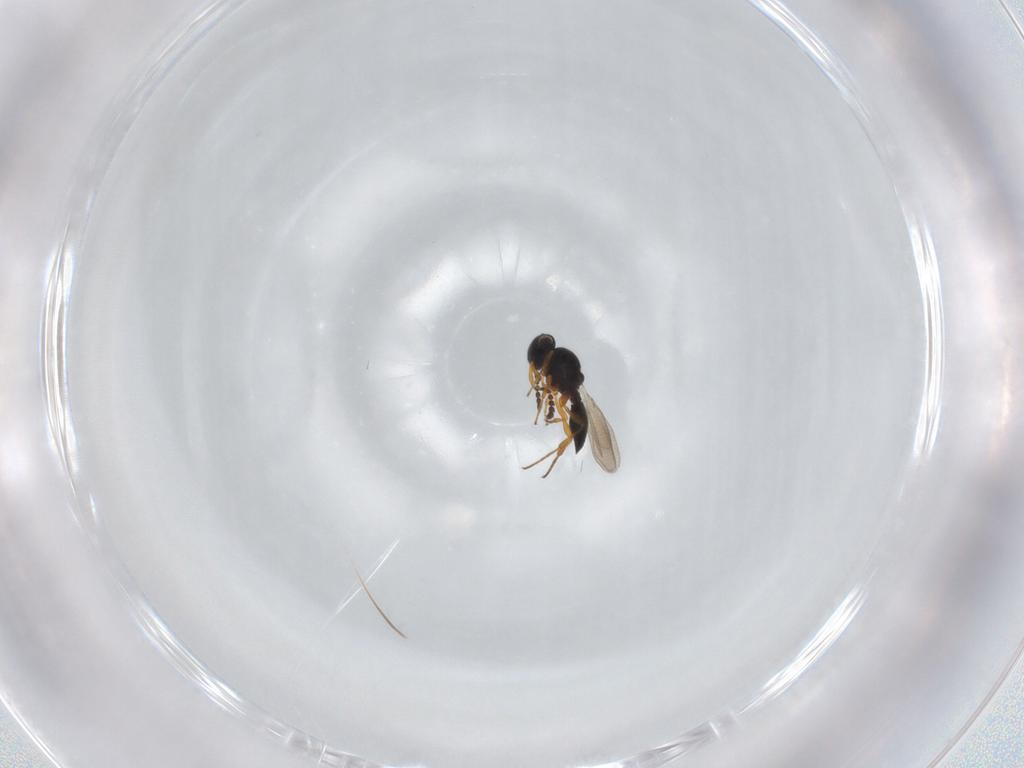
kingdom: Animalia
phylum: Arthropoda
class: Insecta
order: Hymenoptera
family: Platygastridae
